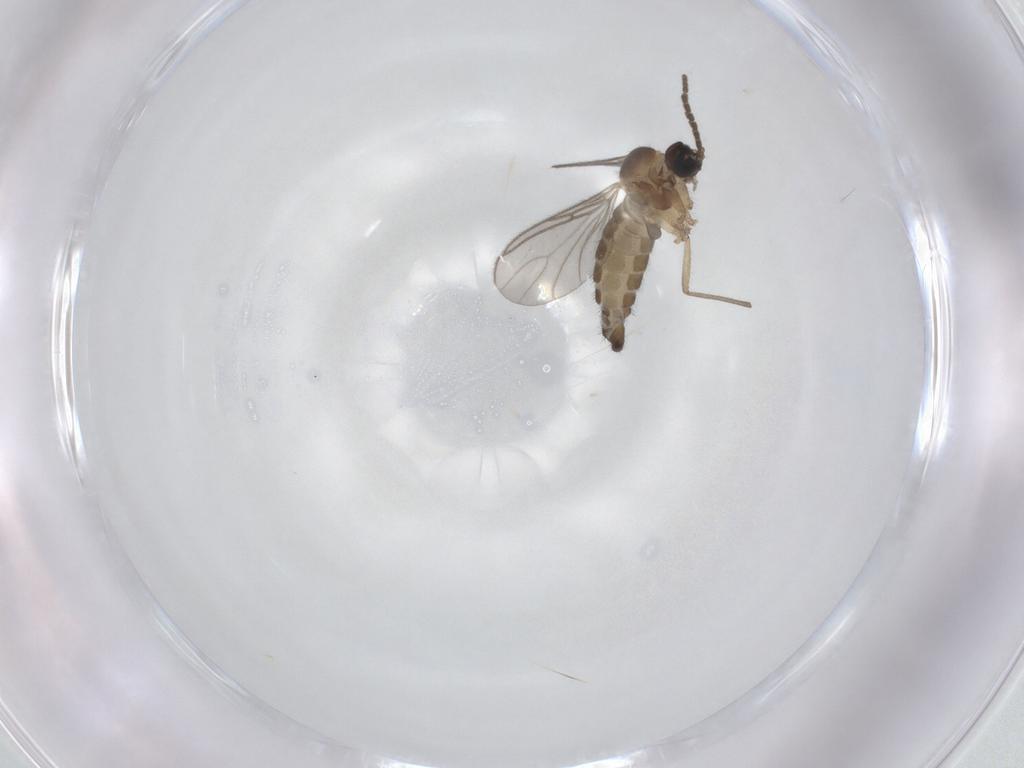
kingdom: Animalia
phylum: Arthropoda
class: Insecta
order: Diptera
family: Sciaridae
